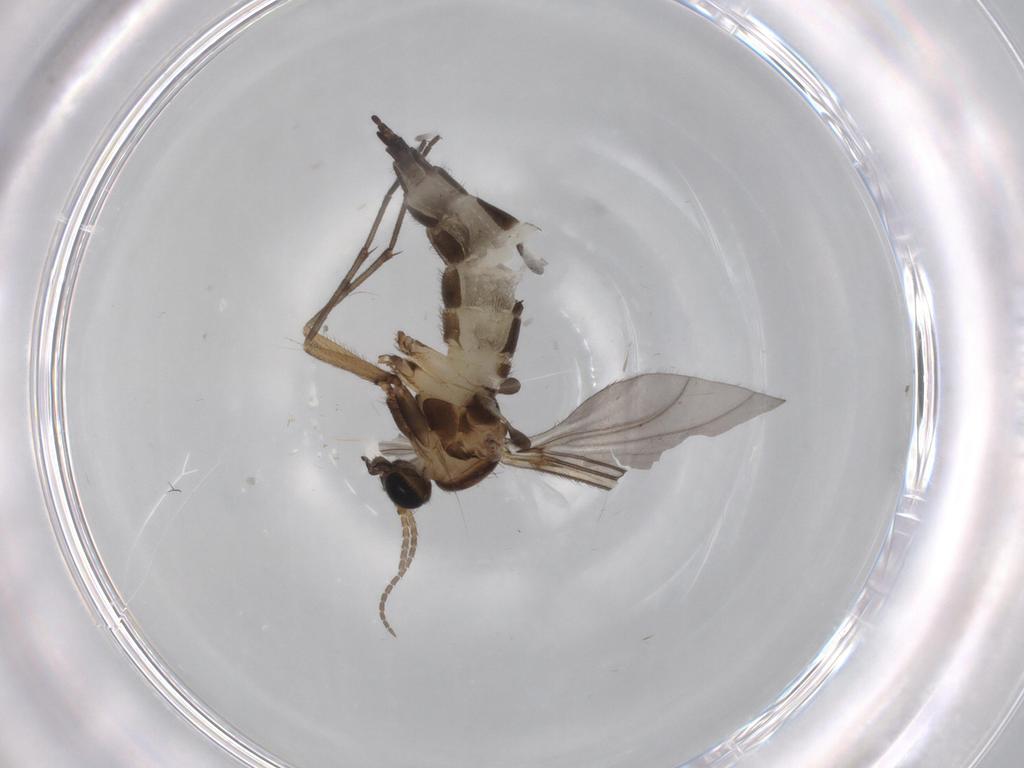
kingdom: Animalia
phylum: Arthropoda
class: Insecta
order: Diptera
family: Sciaridae
